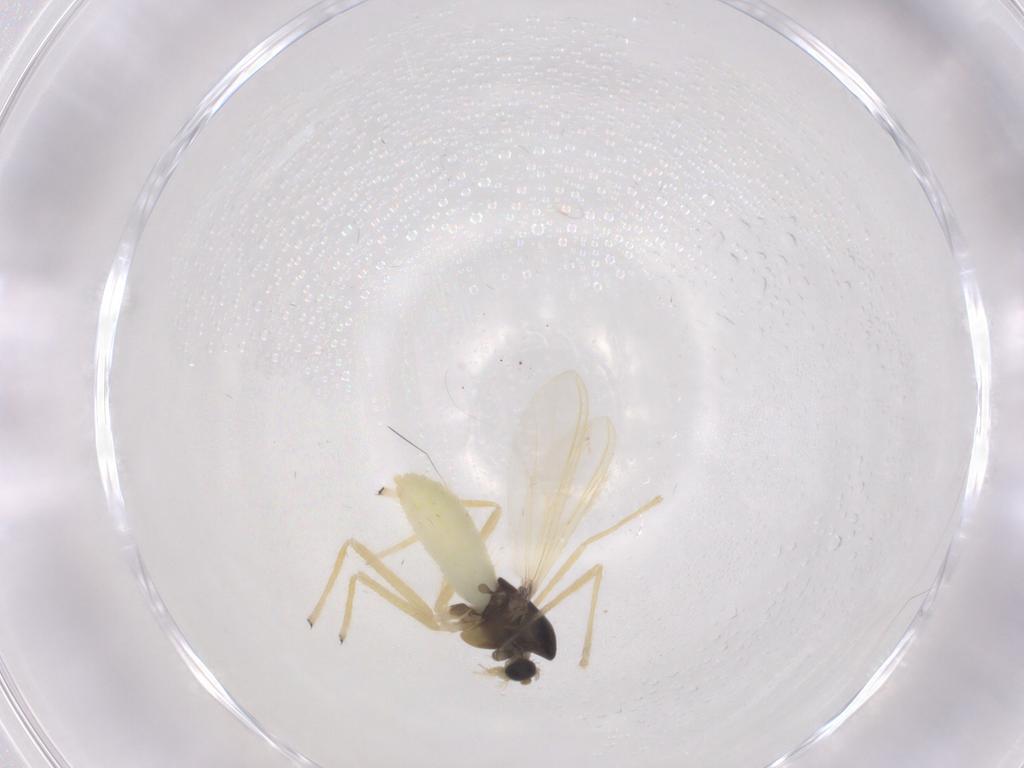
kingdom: Animalia
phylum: Arthropoda
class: Insecta
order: Diptera
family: Chironomidae
